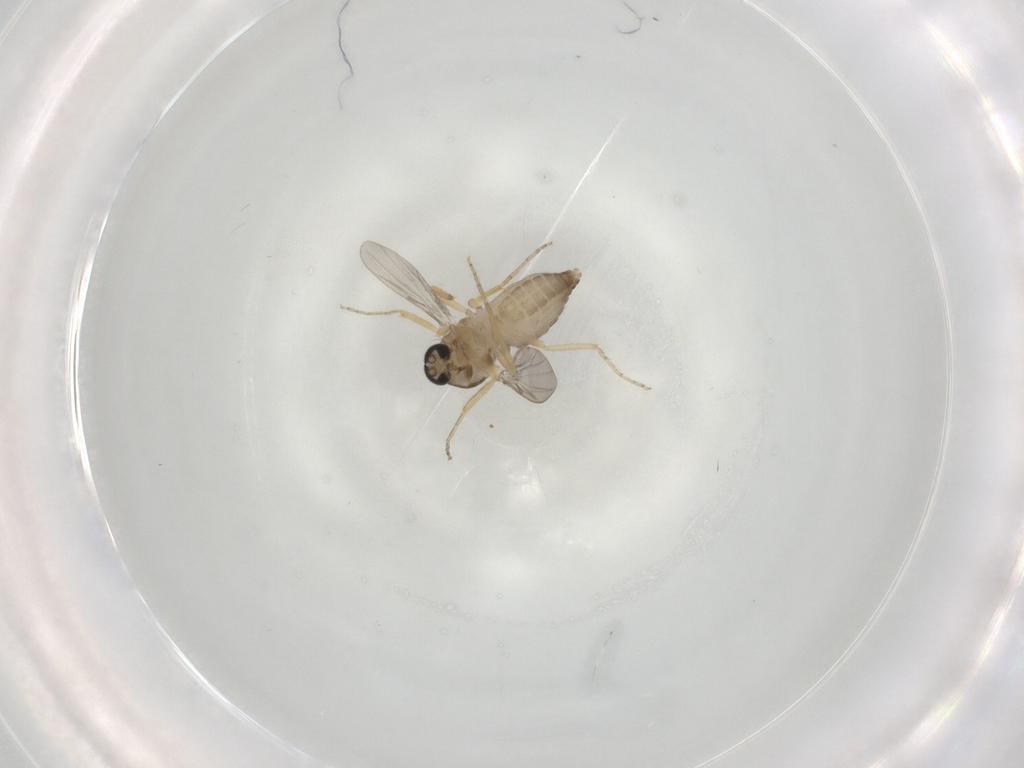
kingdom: Animalia
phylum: Arthropoda
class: Insecta
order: Diptera
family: Ceratopogonidae
